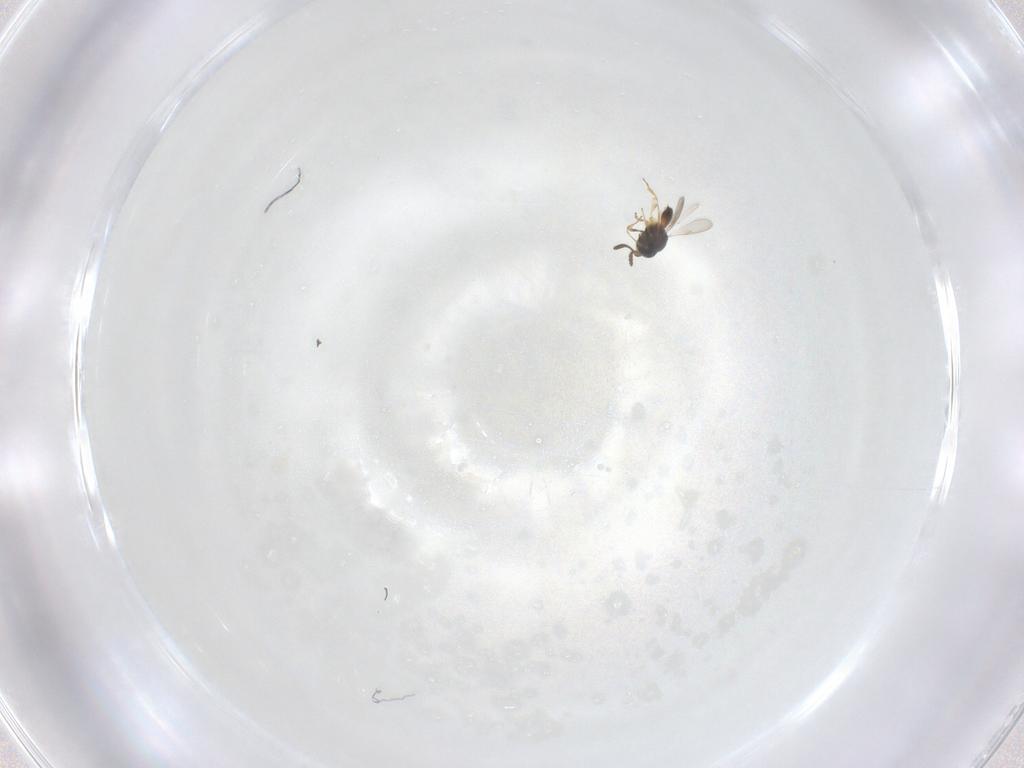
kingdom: Animalia
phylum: Arthropoda
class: Insecta
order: Hymenoptera
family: Scelionidae
